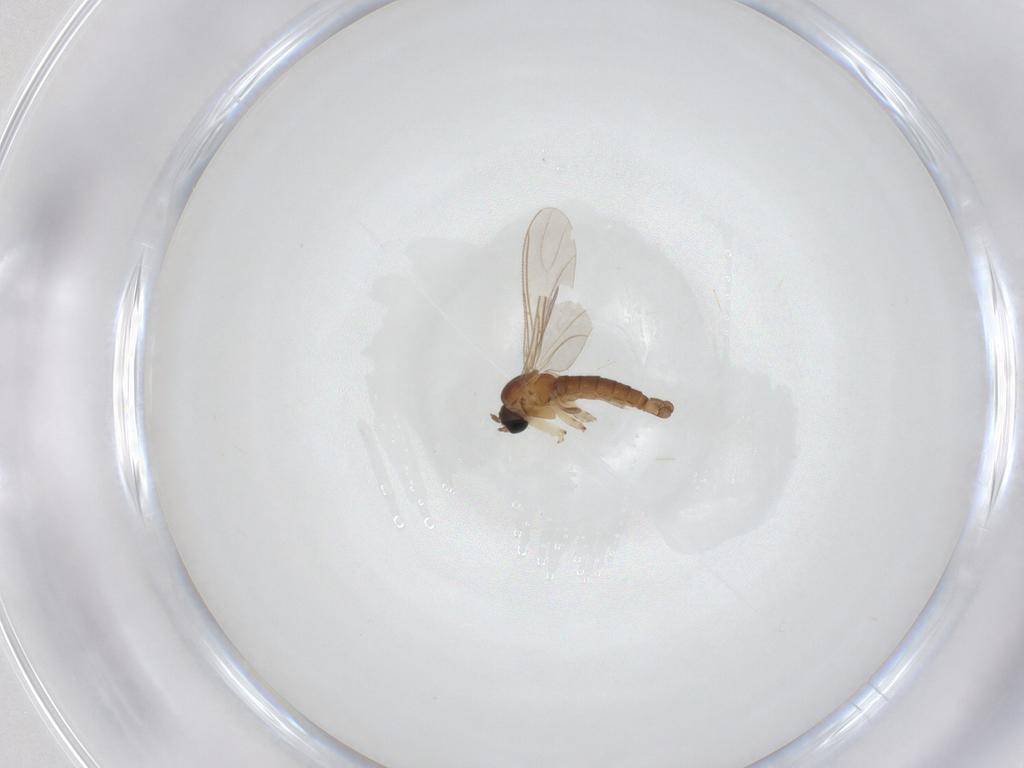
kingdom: Animalia
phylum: Arthropoda
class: Insecta
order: Diptera
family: Sciaridae
